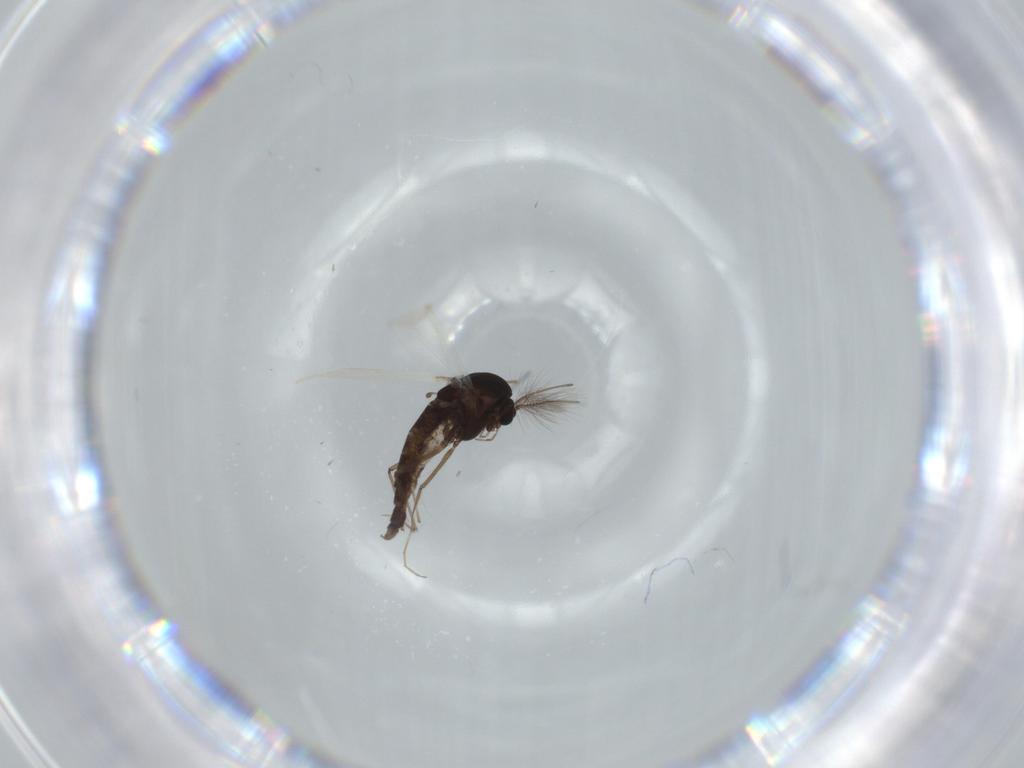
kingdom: Animalia
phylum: Arthropoda
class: Insecta
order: Diptera
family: Chironomidae
